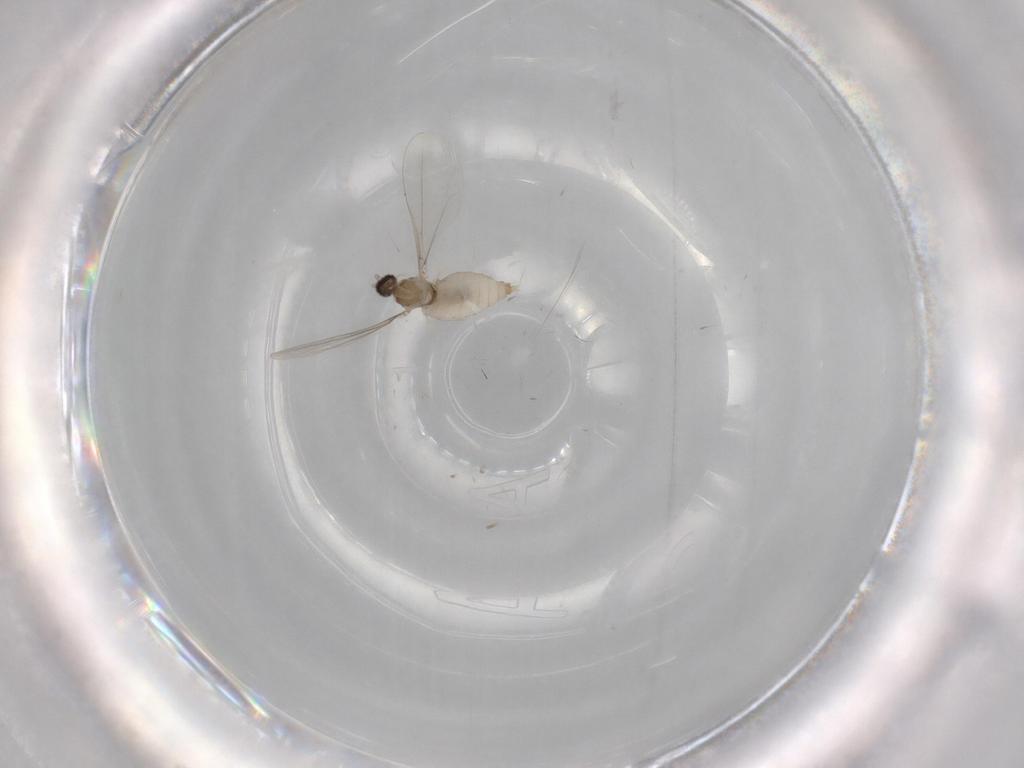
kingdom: Animalia
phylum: Arthropoda
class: Insecta
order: Diptera
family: Cecidomyiidae
